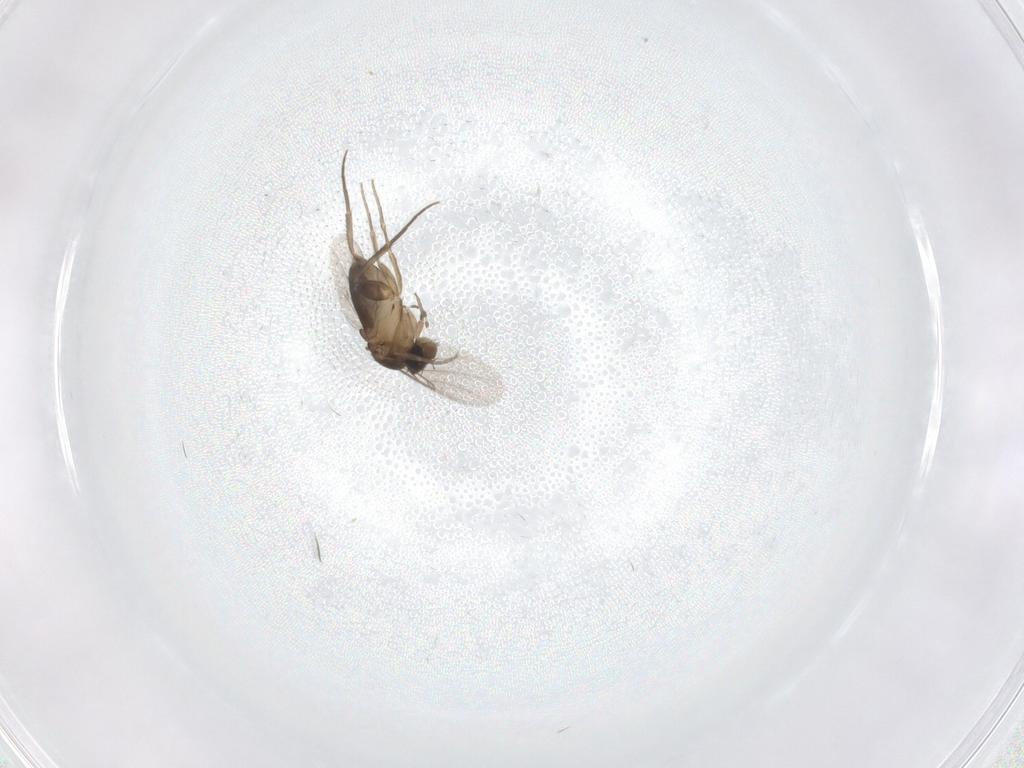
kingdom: Animalia
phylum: Arthropoda
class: Insecta
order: Diptera
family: Phoridae
